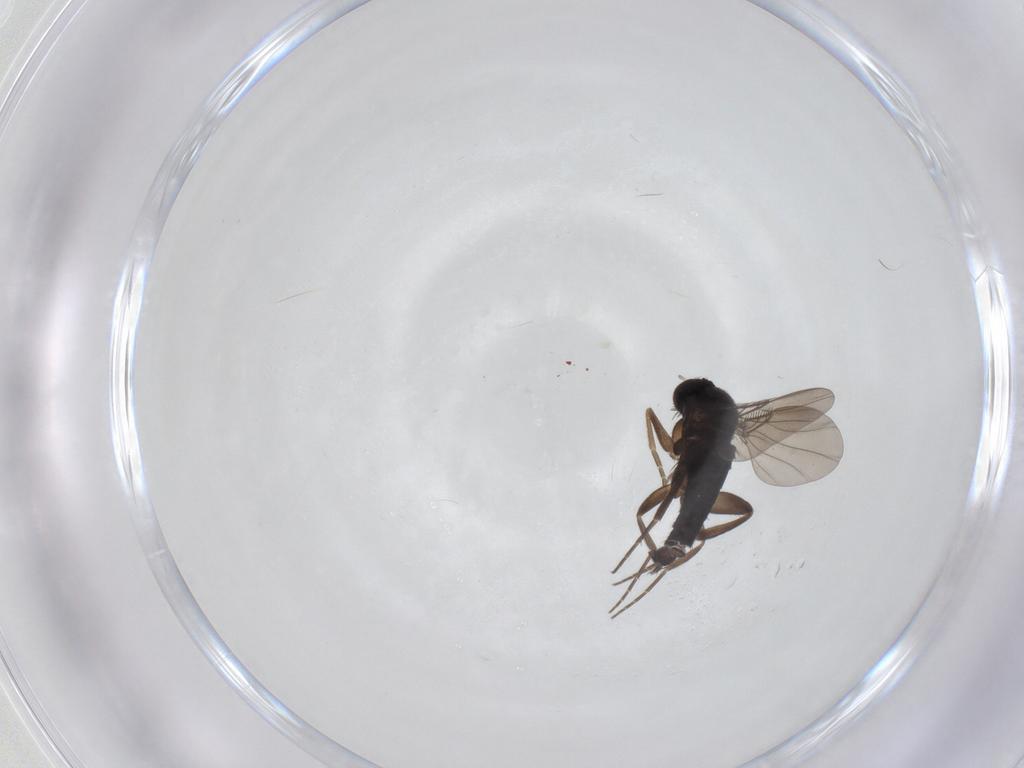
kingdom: Animalia
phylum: Arthropoda
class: Insecta
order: Diptera
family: Phoridae
